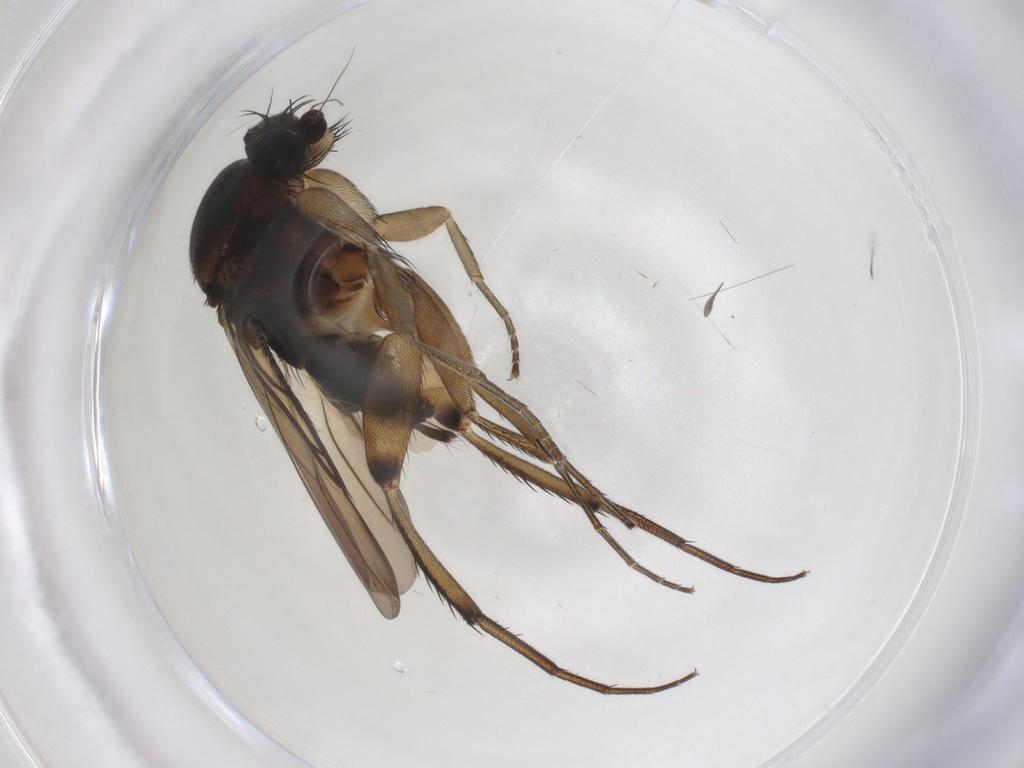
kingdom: Animalia
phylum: Arthropoda
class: Insecta
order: Diptera
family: Phoridae
